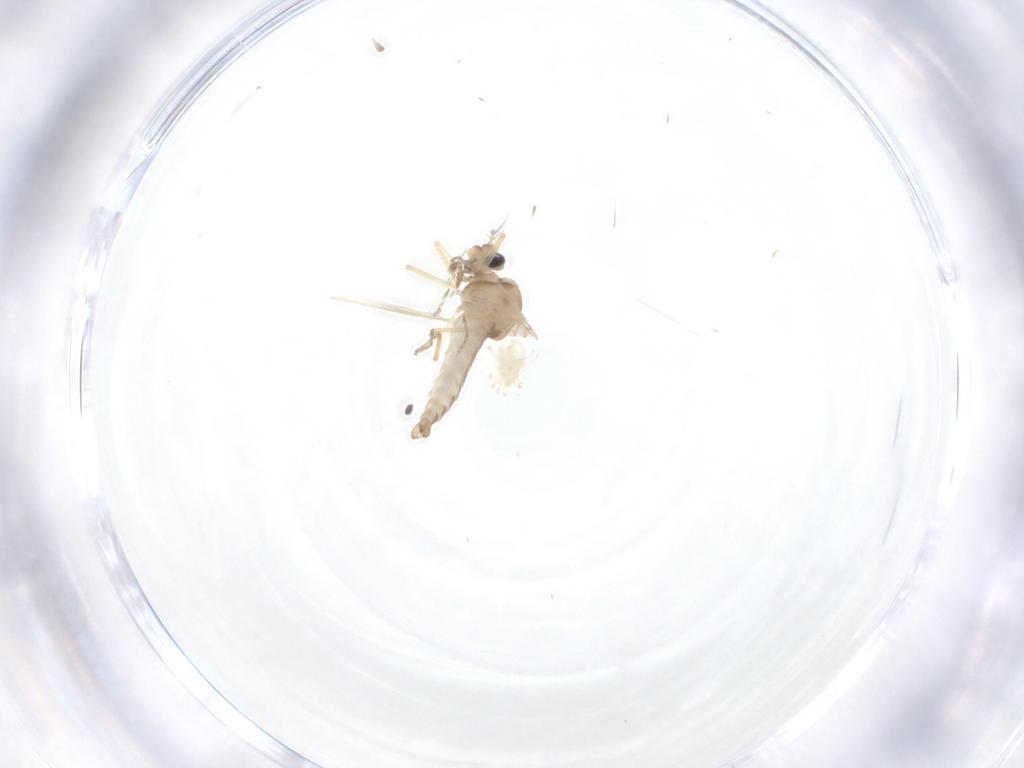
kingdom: Animalia
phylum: Arthropoda
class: Insecta
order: Diptera
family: Ceratopogonidae
